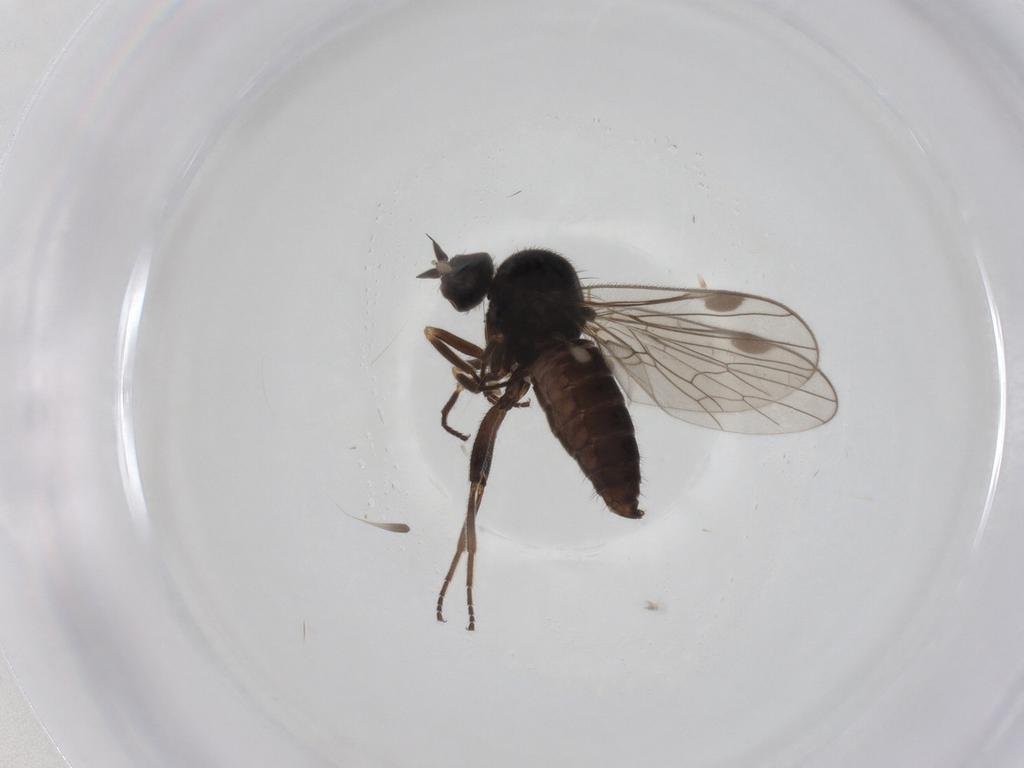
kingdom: Animalia
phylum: Arthropoda
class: Insecta
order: Diptera
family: Muscidae
